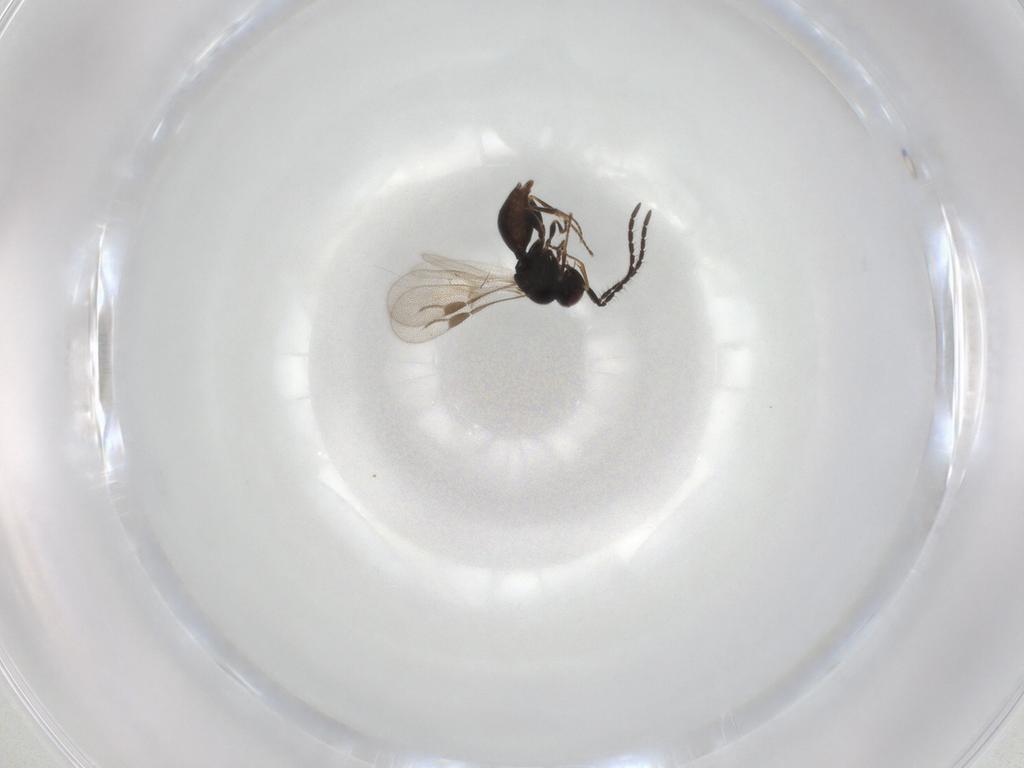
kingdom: Animalia
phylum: Arthropoda
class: Insecta
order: Hymenoptera
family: Megaspilidae
